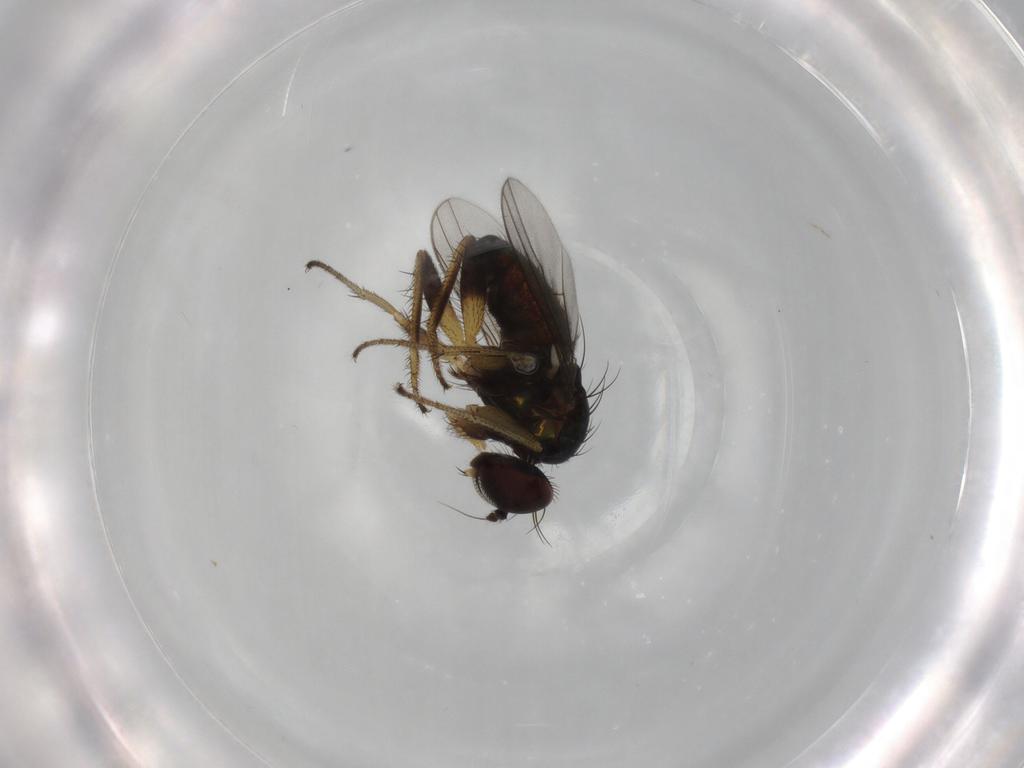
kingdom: Animalia
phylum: Arthropoda
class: Insecta
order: Diptera
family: Dolichopodidae
